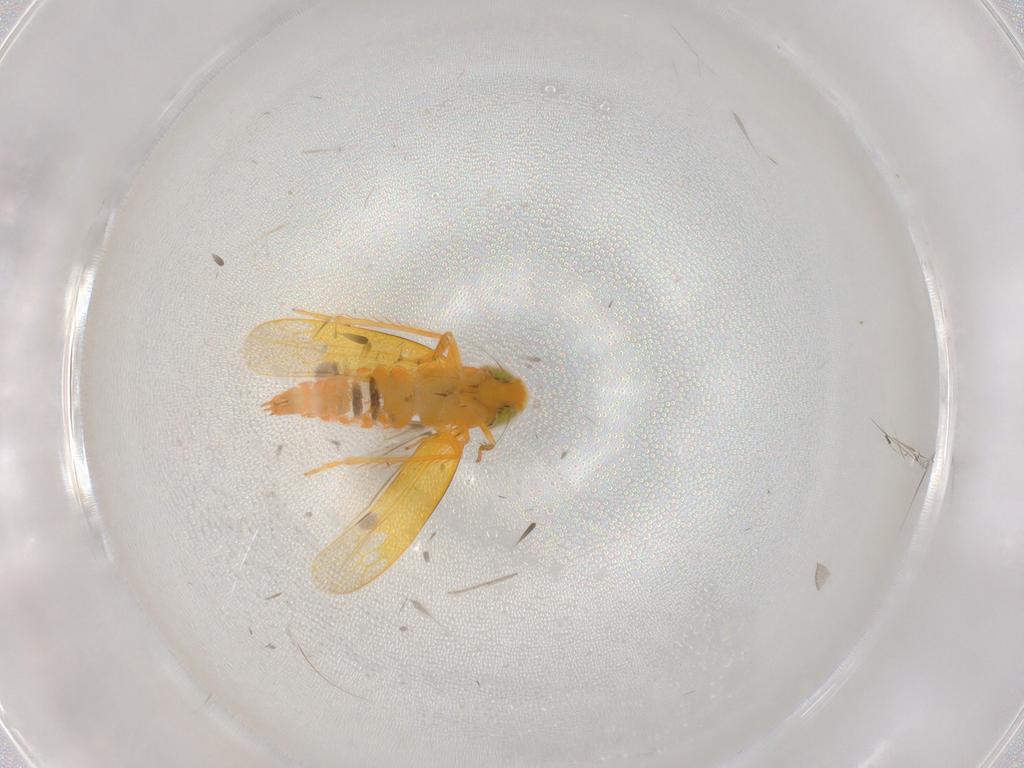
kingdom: Animalia
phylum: Arthropoda
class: Insecta
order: Hemiptera
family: Cicadellidae
